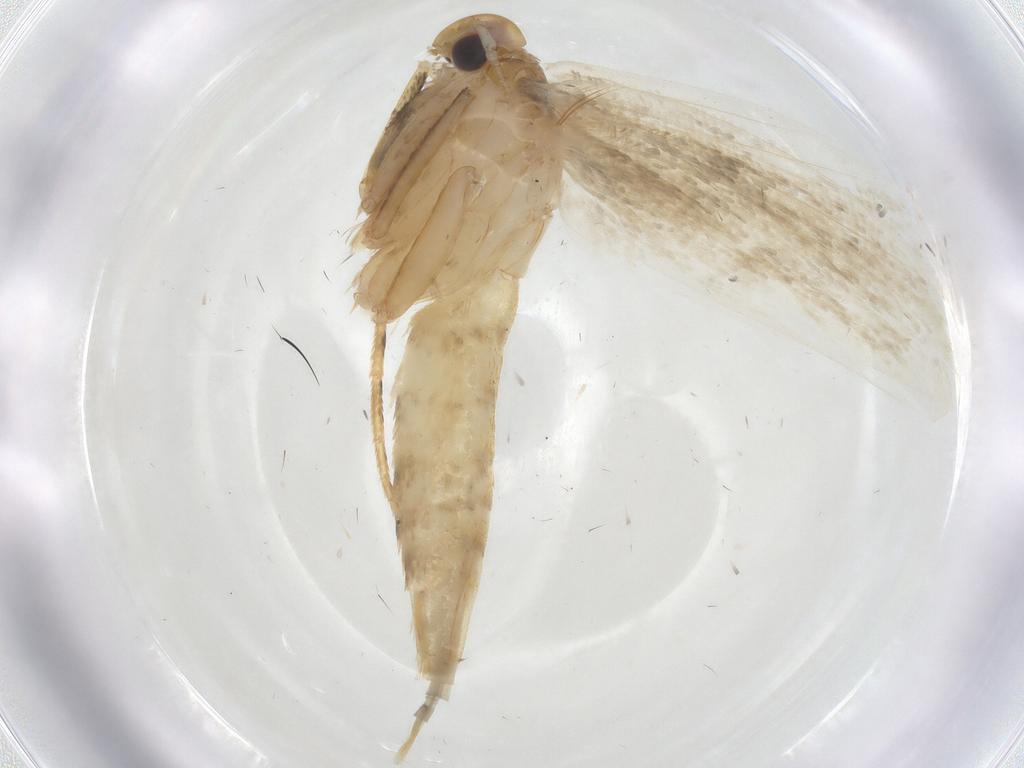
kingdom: Animalia
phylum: Arthropoda
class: Insecta
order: Lepidoptera
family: Gelechiidae
